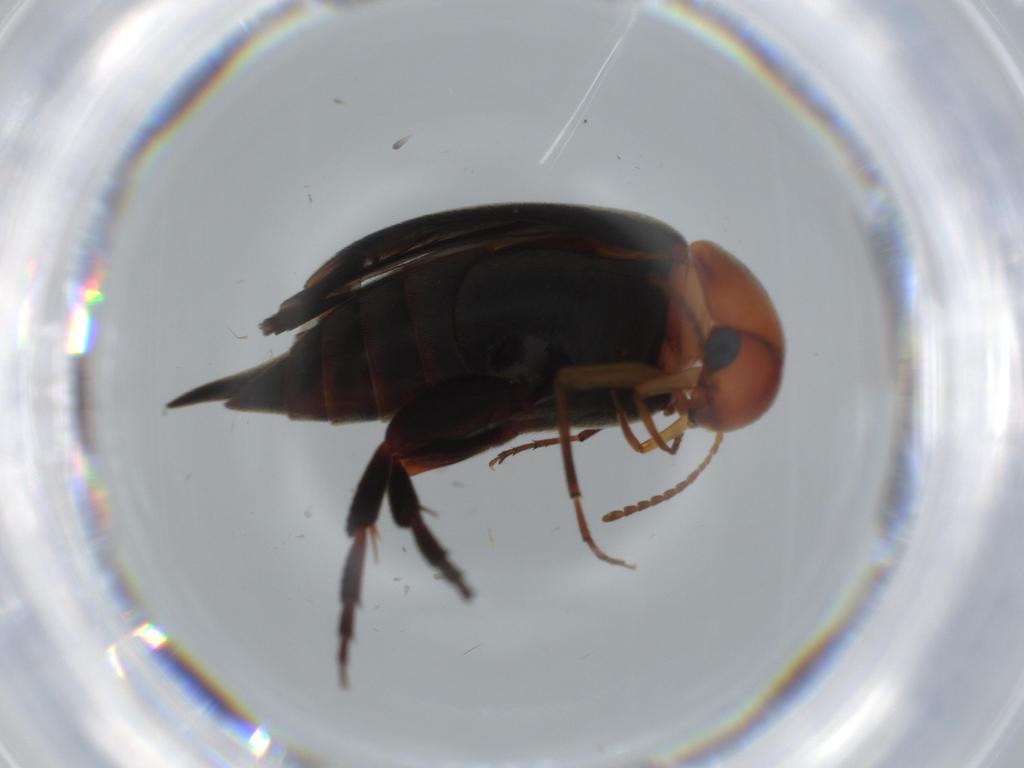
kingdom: Animalia
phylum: Arthropoda
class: Insecta
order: Coleoptera
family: Mordellidae
